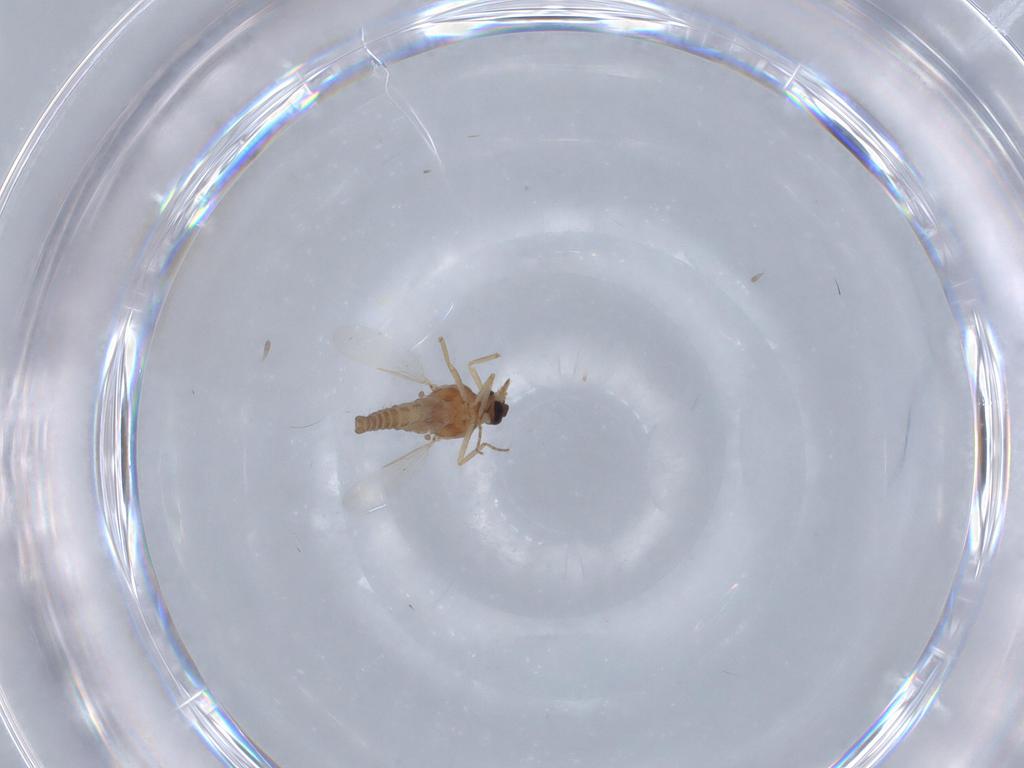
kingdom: Animalia
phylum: Arthropoda
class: Insecta
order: Diptera
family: Ceratopogonidae
